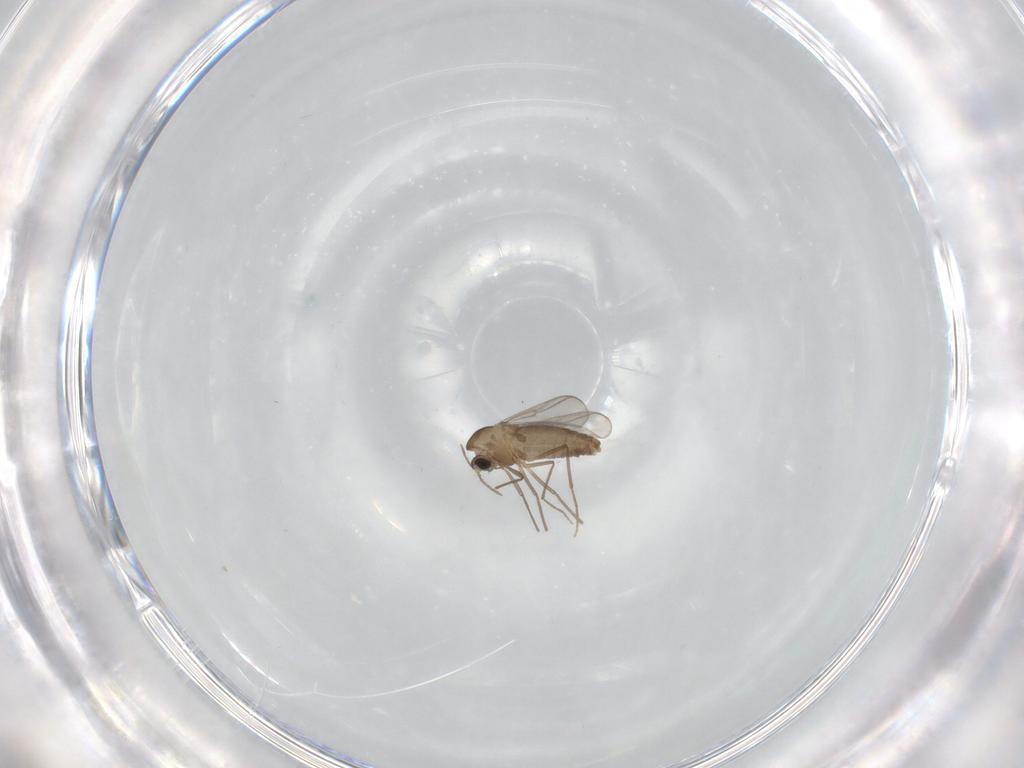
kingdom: Animalia
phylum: Arthropoda
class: Insecta
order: Diptera
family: Chironomidae
